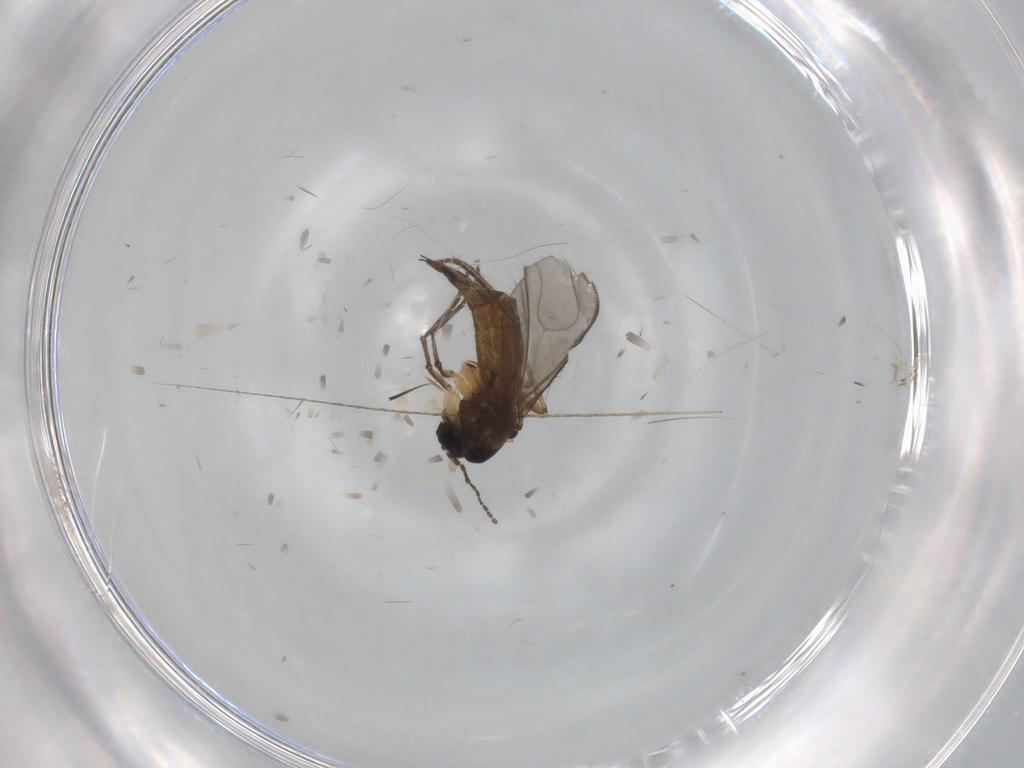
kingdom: Animalia
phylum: Arthropoda
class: Insecta
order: Diptera
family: Sciaridae
